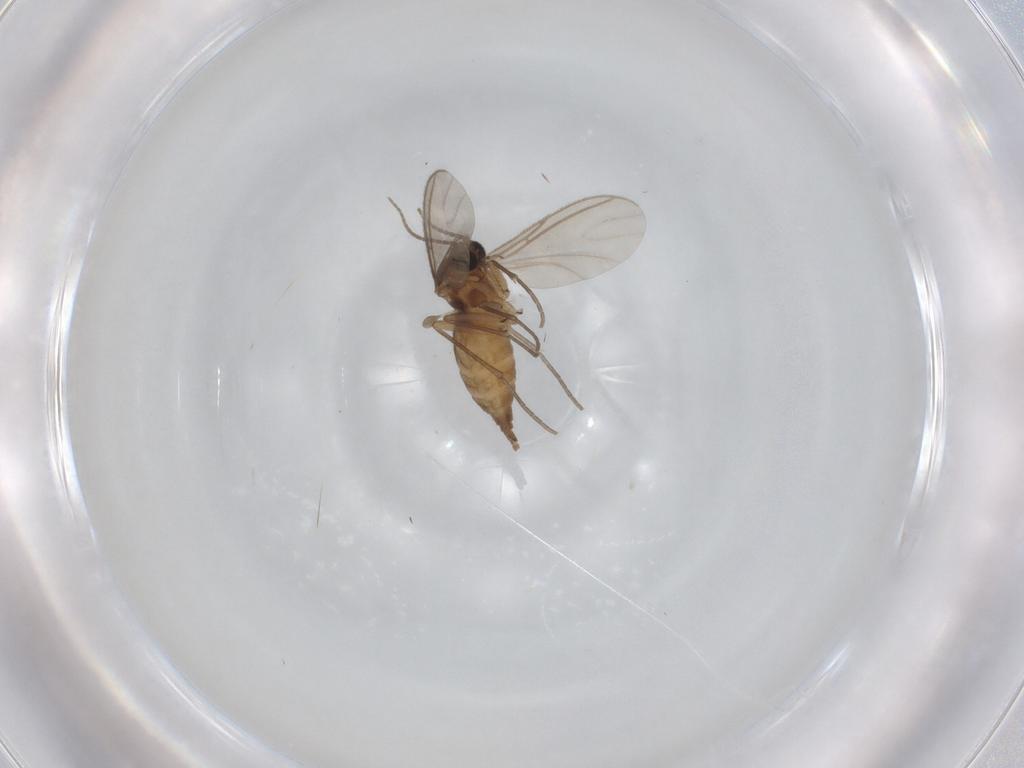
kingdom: Animalia
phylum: Arthropoda
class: Insecta
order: Diptera
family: Sciaridae
